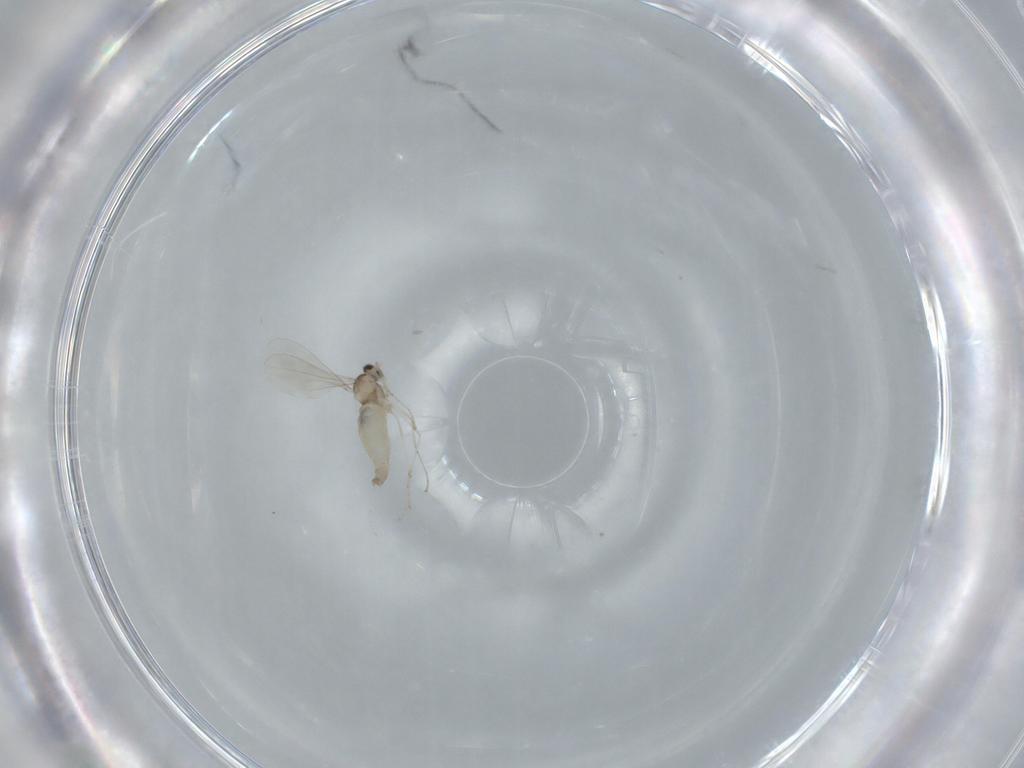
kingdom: Animalia
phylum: Arthropoda
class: Insecta
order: Diptera
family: Cecidomyiidae
